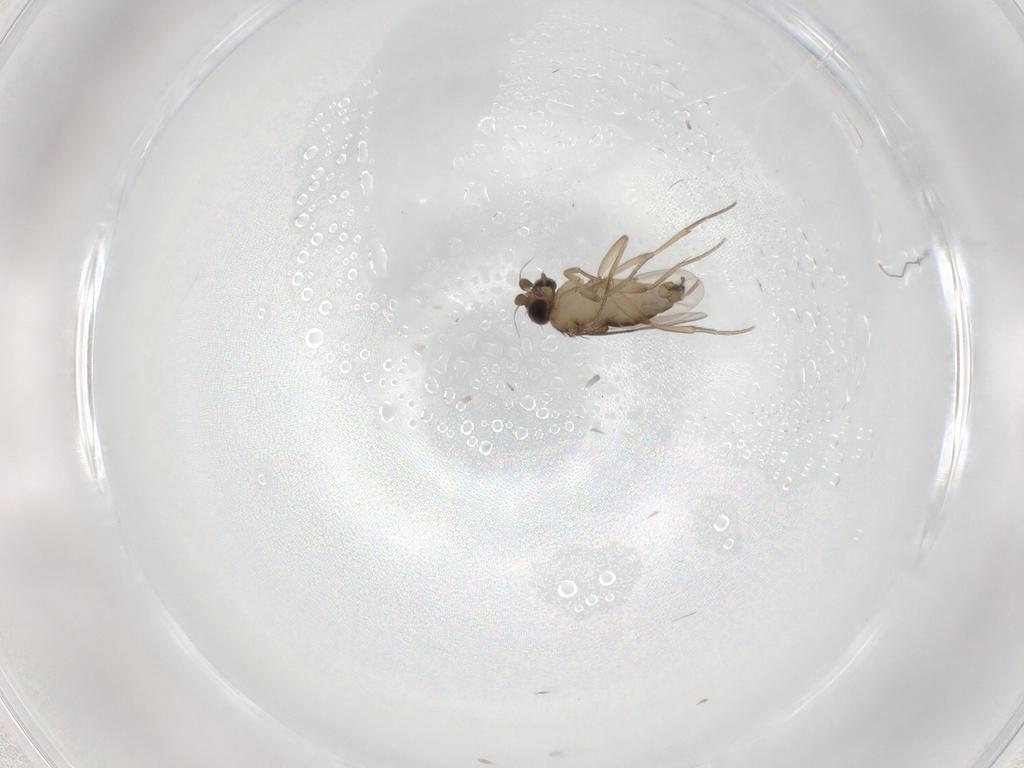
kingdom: Animalia
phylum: Arthropoda
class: Insecta
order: Diptera
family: Phoridae
